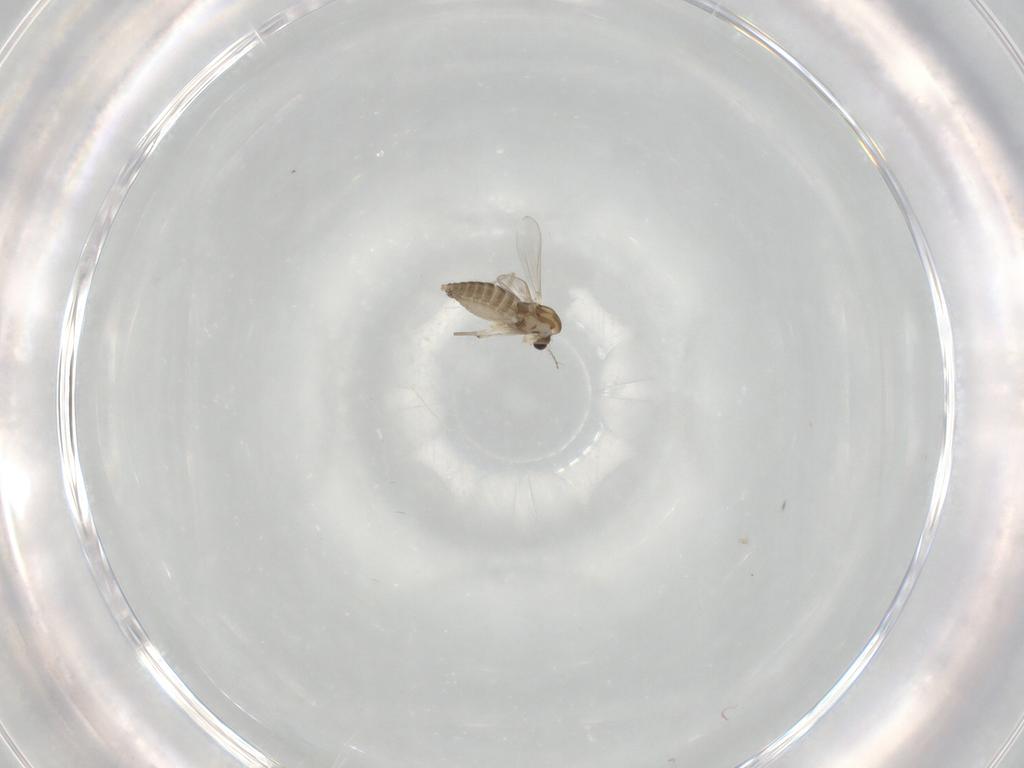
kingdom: Animalia
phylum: Arthropoda
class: Insecta
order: Diptera
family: Chironomidae
